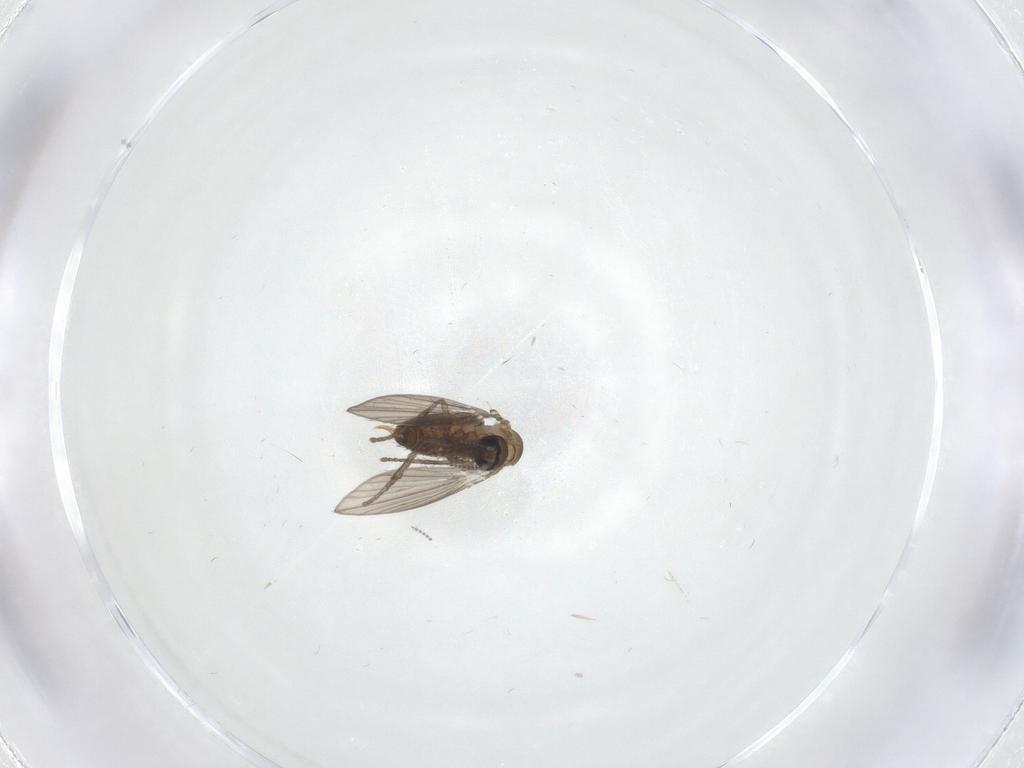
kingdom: Animalia
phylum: Arthropoda
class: Insecta
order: Diptera
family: Psychodidae
